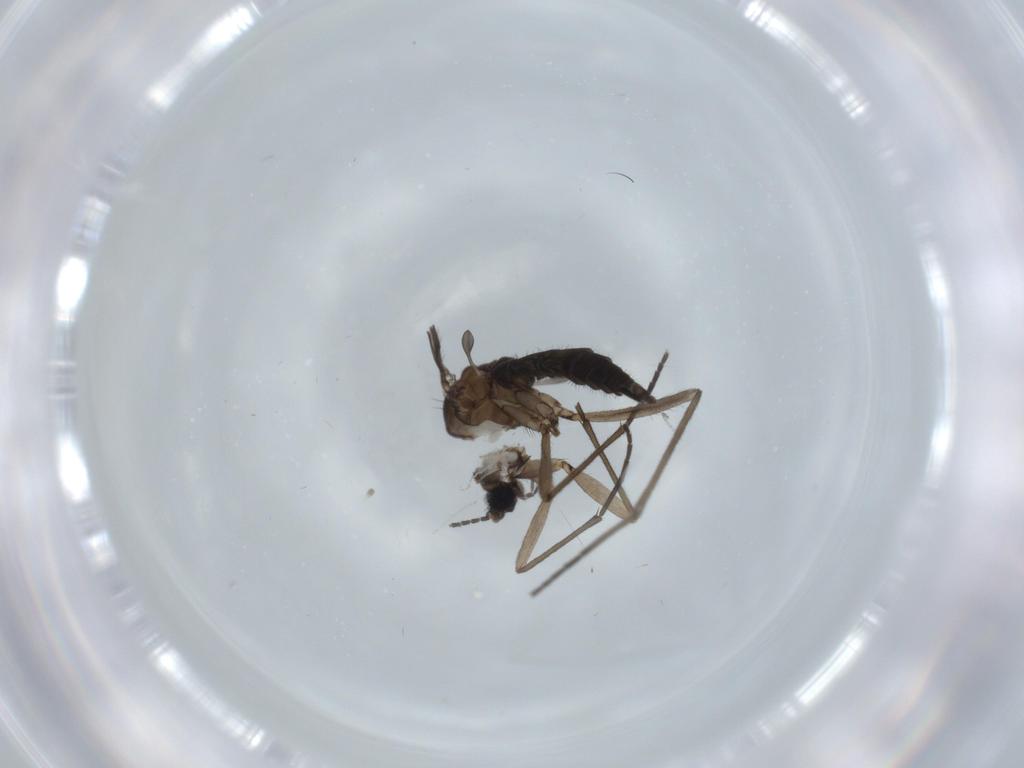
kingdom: Animalia
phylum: Arthropoda
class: Insecta
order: Diptera
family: Sciaridae
